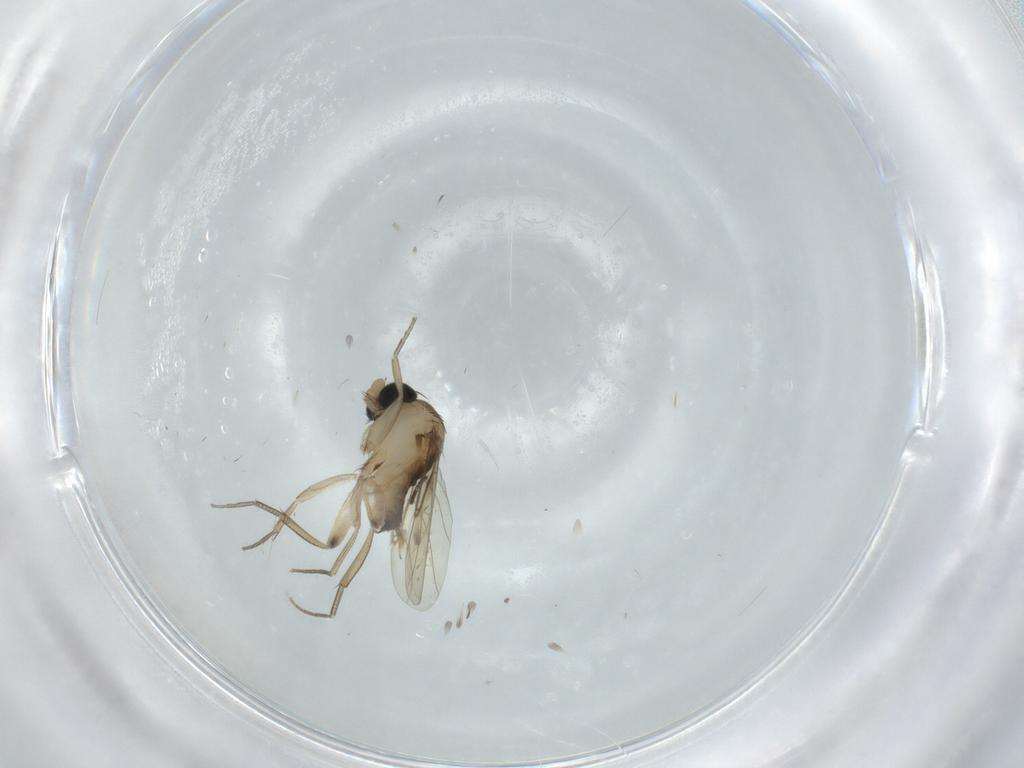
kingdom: Animalia
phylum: Arthropoda
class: Insecta
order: Diptera
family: Phoridae
